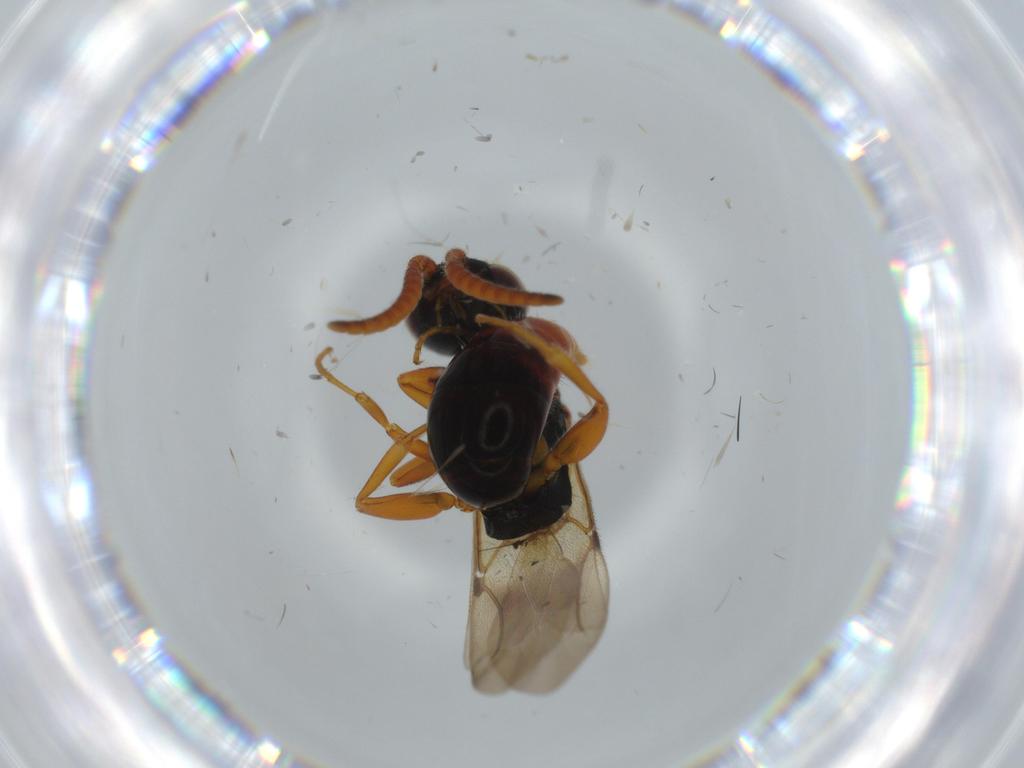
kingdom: Animalia
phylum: Arthropoda
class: Insecta
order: Hymenoptera
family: Bethylidae
